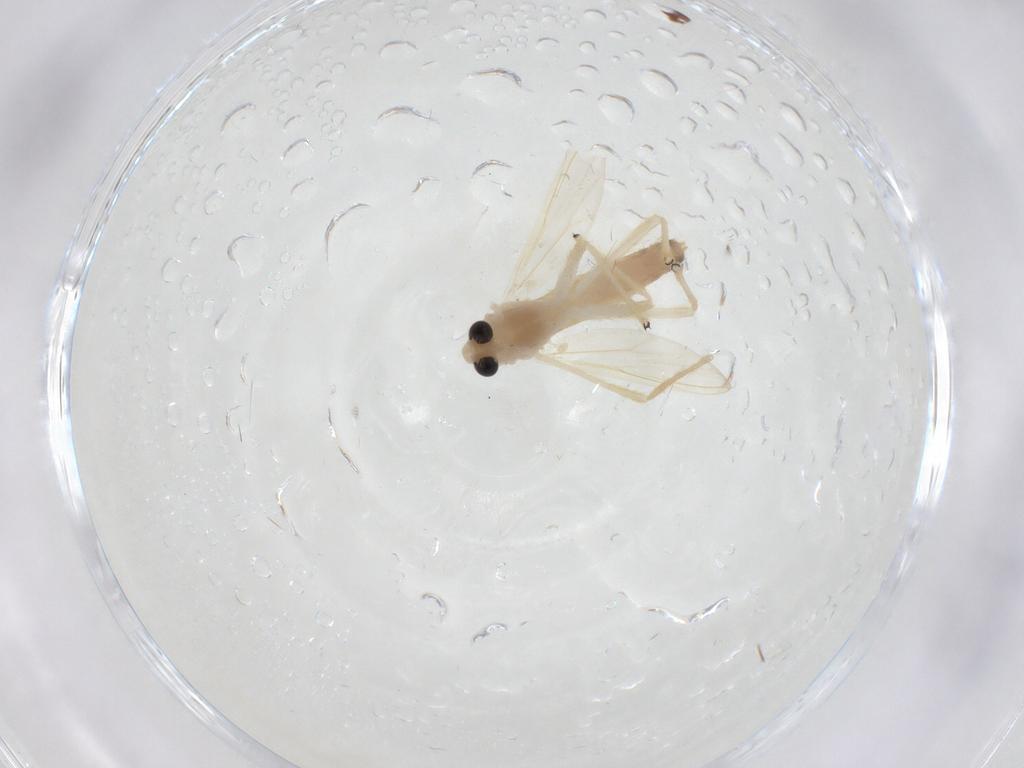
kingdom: Animalia
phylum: Arthropoda
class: Insecta
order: Diptera
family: Chironomidae
